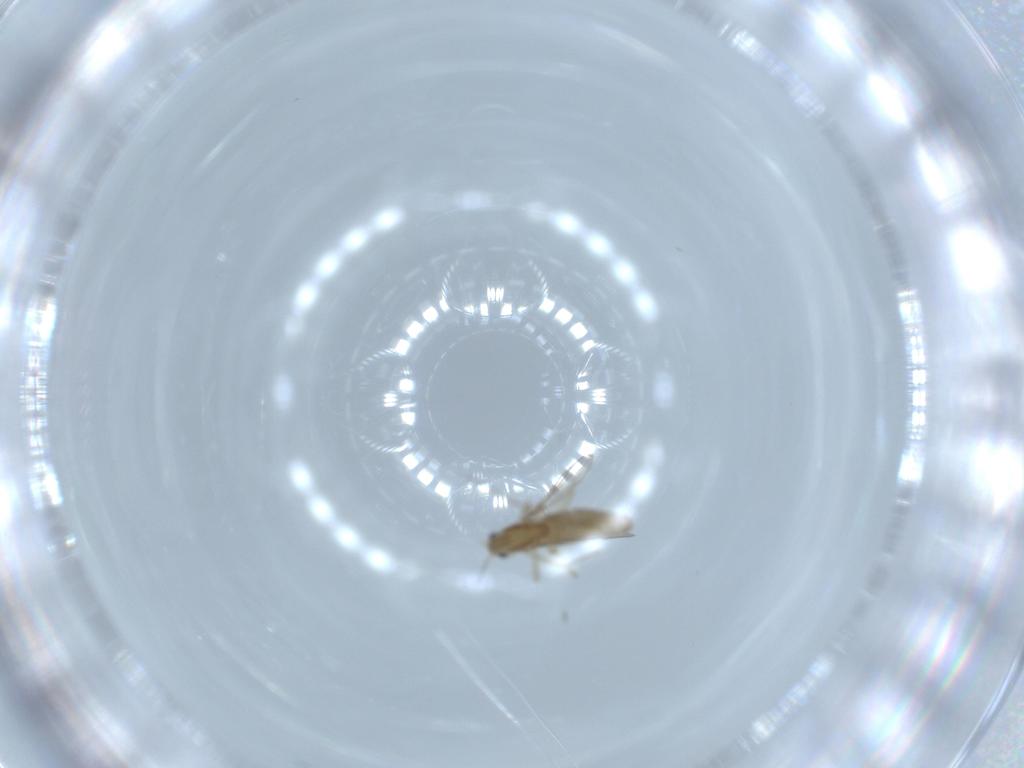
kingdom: Animalia
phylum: Arthropoda
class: Insecta
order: Diptera
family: Chironomidae
